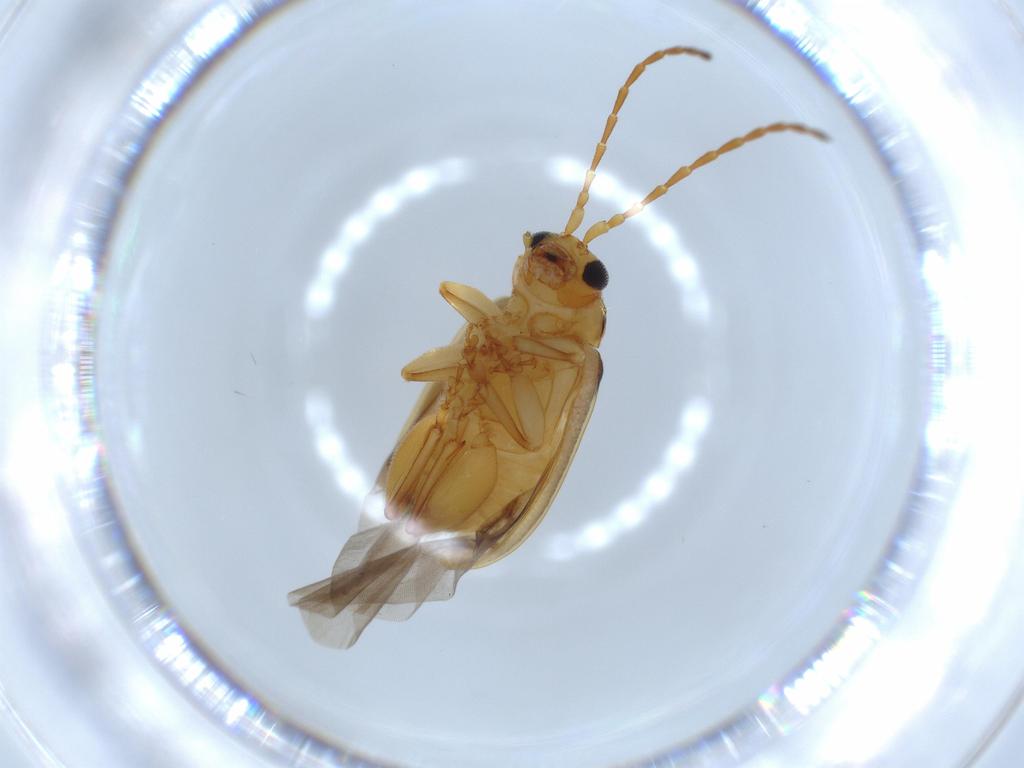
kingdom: Animalia
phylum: Arthropoda
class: Insecta
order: Coleoptera
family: Chrysomelidae
